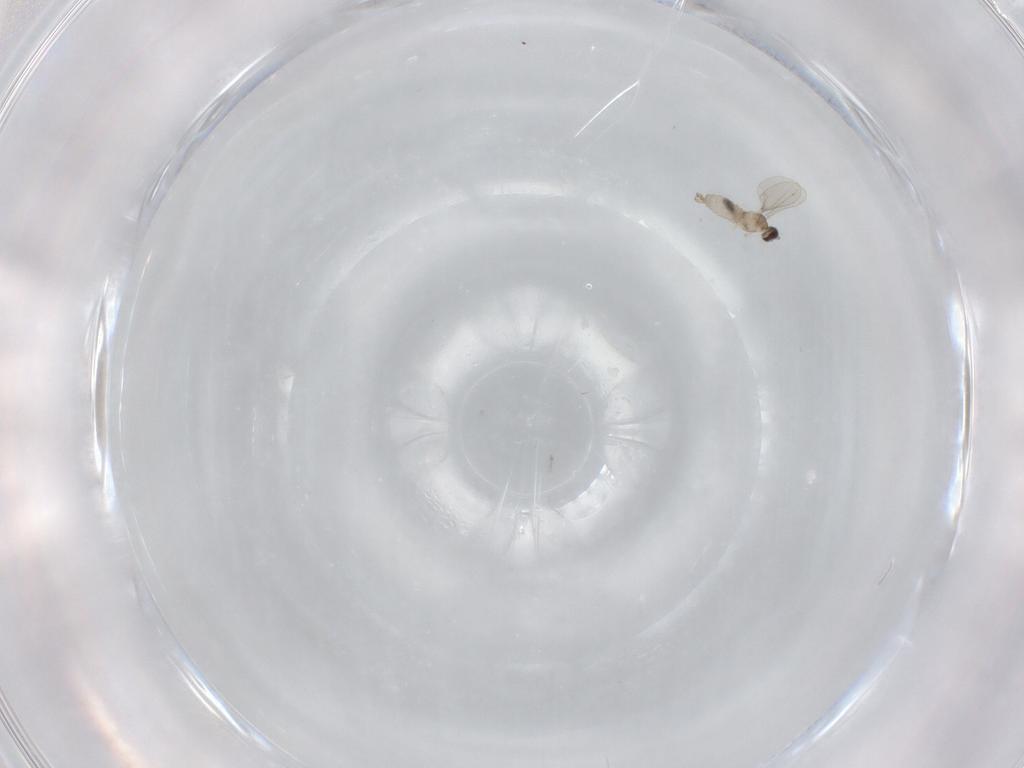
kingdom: Animalia
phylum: Arthropoda
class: Insecta
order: Diptera
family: Cecidomyiidae
